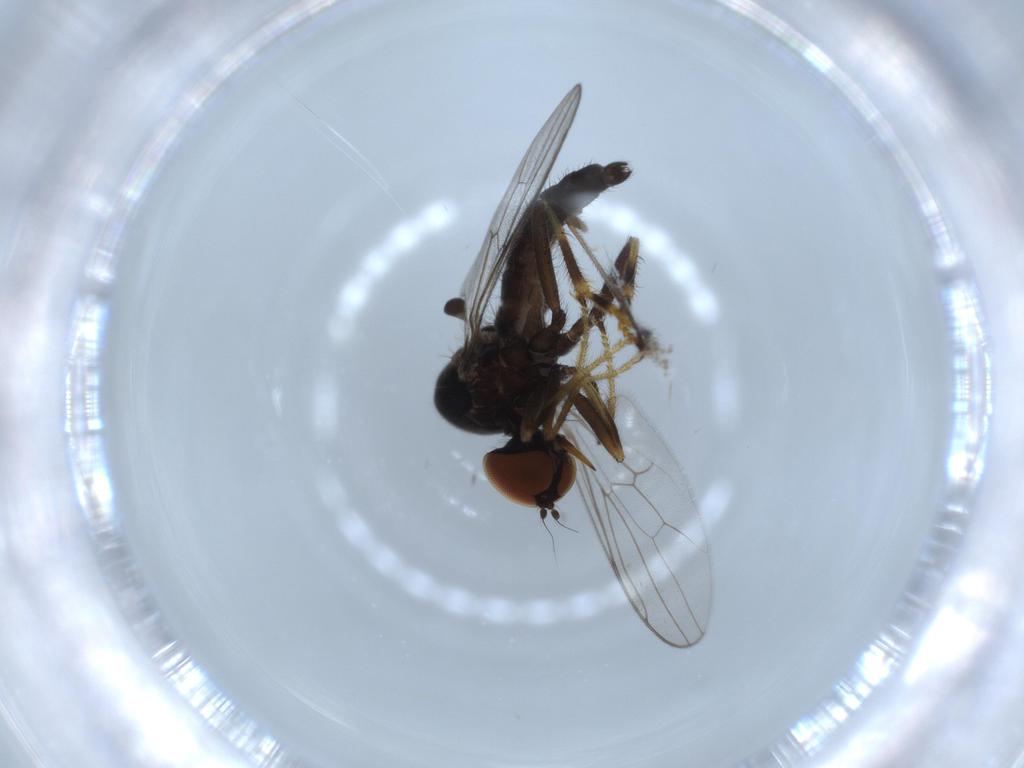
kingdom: Animalia
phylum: Arthropoda
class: Insecta
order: Diptera
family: Hybotidae
